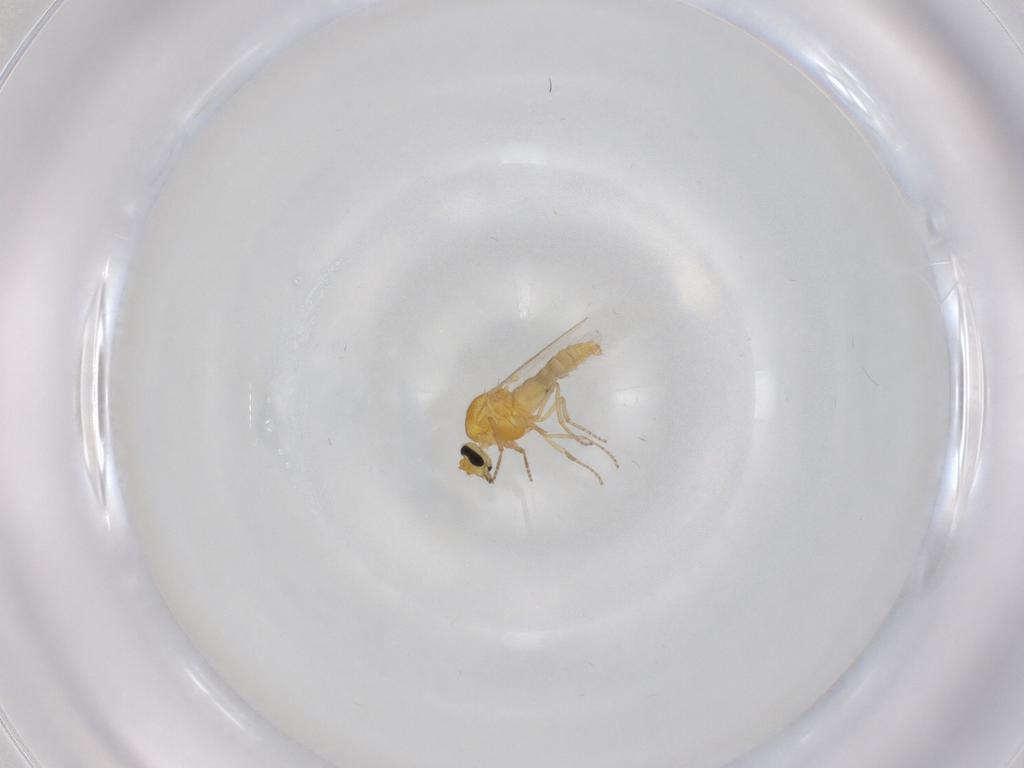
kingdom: Animalia
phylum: Arthropoda
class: Insecta
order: Diptera
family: Ceratopogonidae
